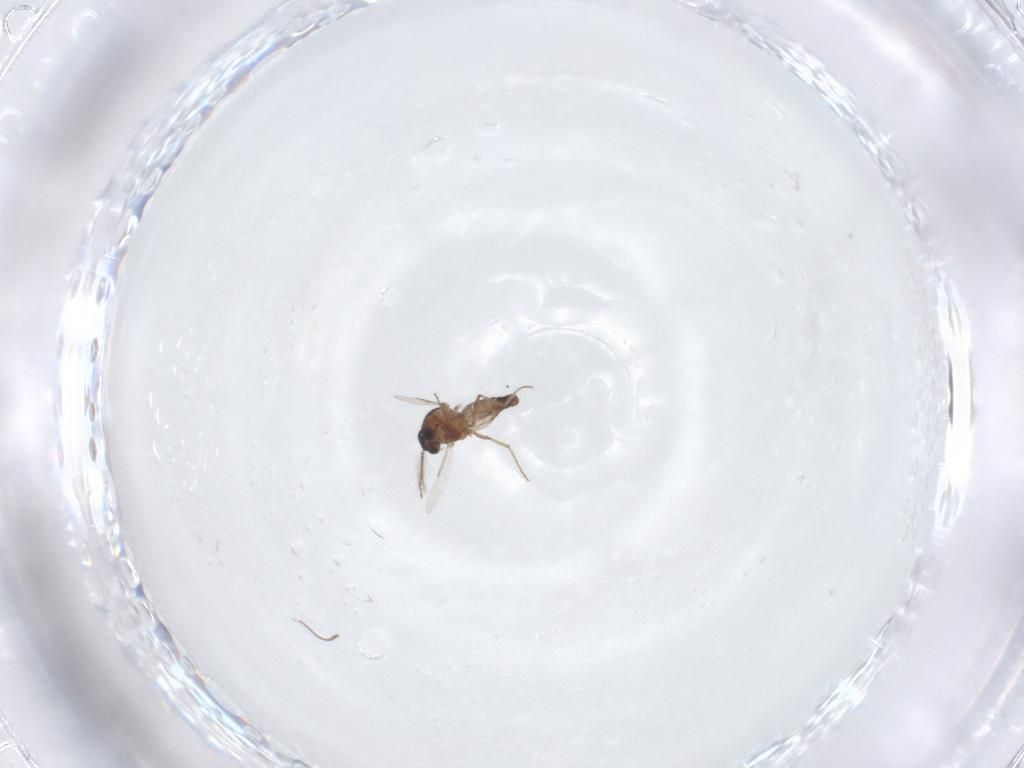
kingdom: Animalia
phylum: Arthropoda
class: Insecta
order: Diptera
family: Ceratopogonidae
